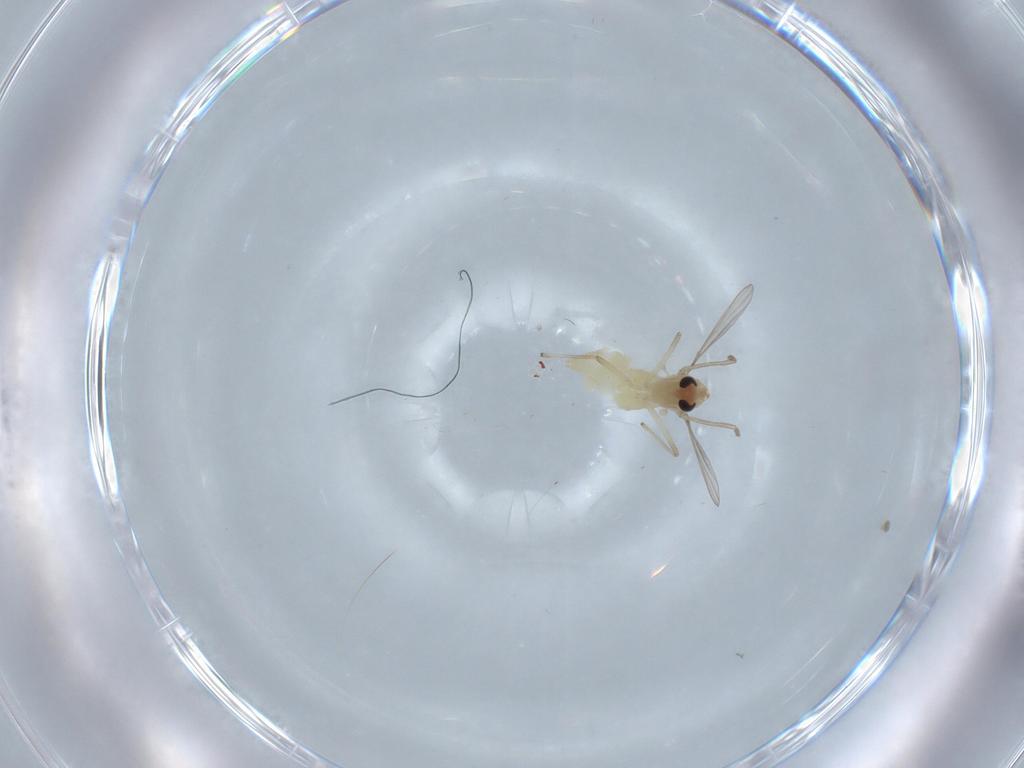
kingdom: Animalia
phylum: Arthropoda
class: Insecta
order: Diptera
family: Chironomidae
